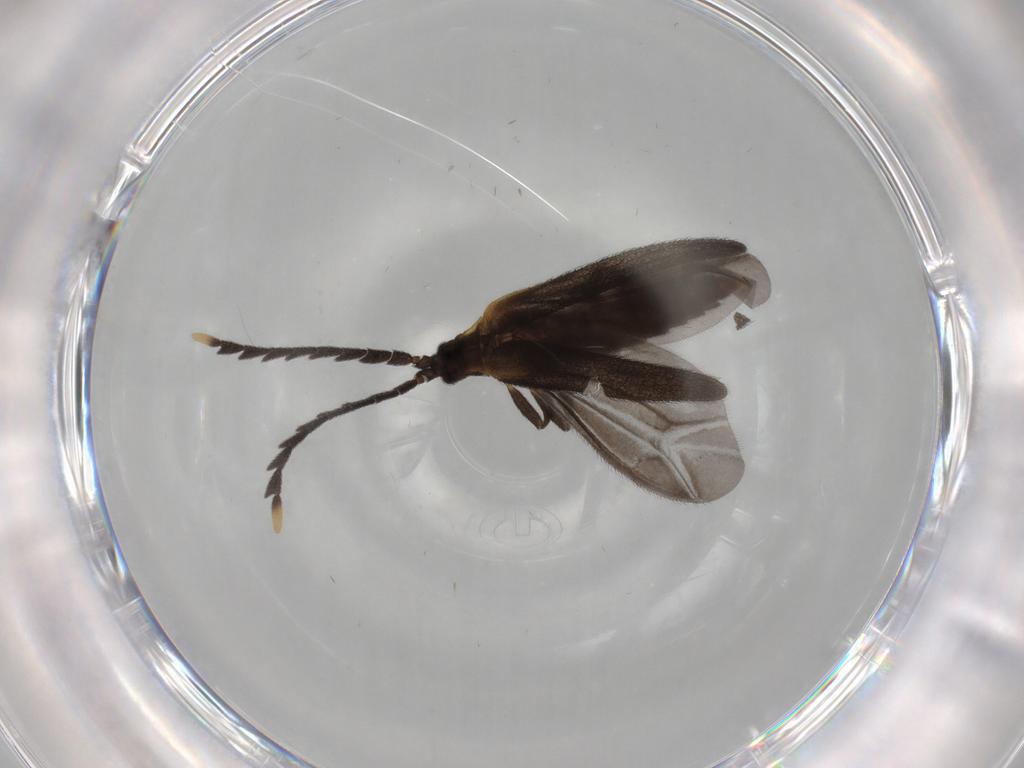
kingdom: Animalia
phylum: Arthropoda
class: Insecta
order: Coleoptera
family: Lycidae
